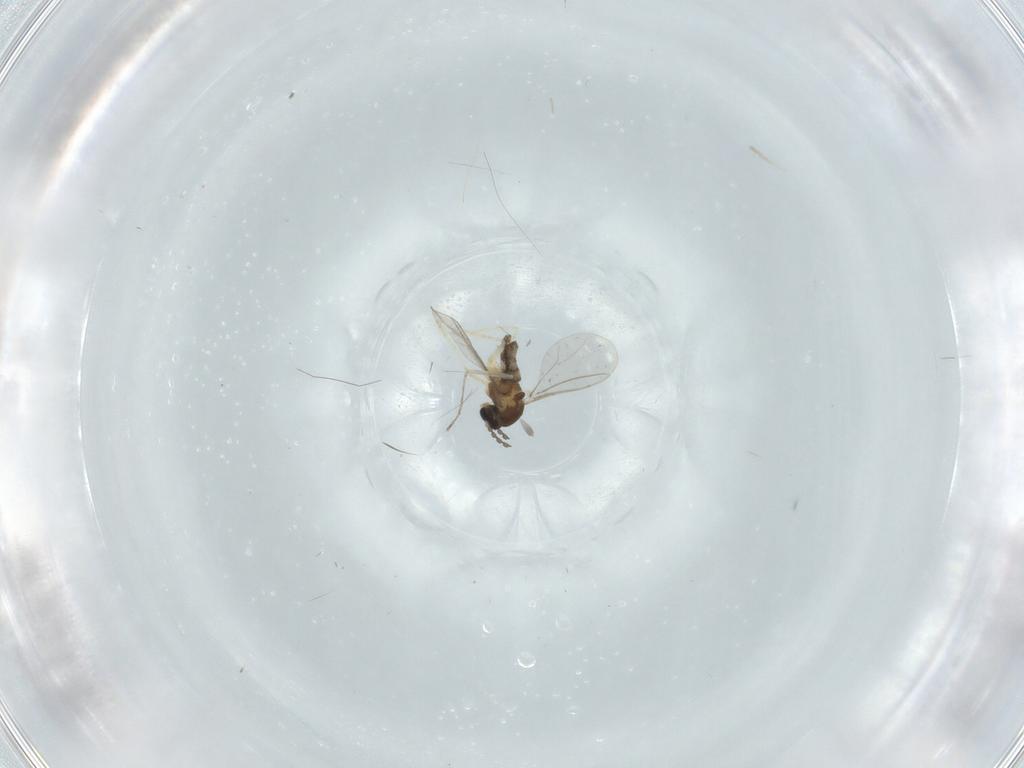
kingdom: Animalia
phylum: Arthropoda
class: Insecta
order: Diptera
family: Cecidomyiidae
